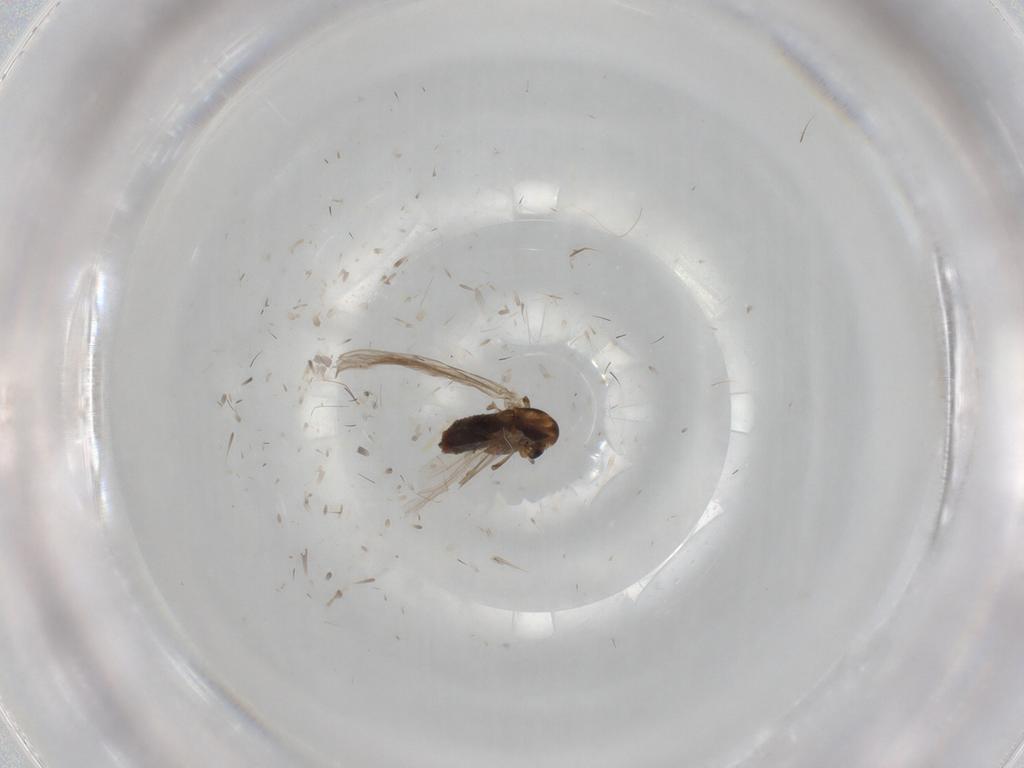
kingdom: Animalia
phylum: Arthropoda
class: Insecta
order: Diptera
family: Chironomidae
